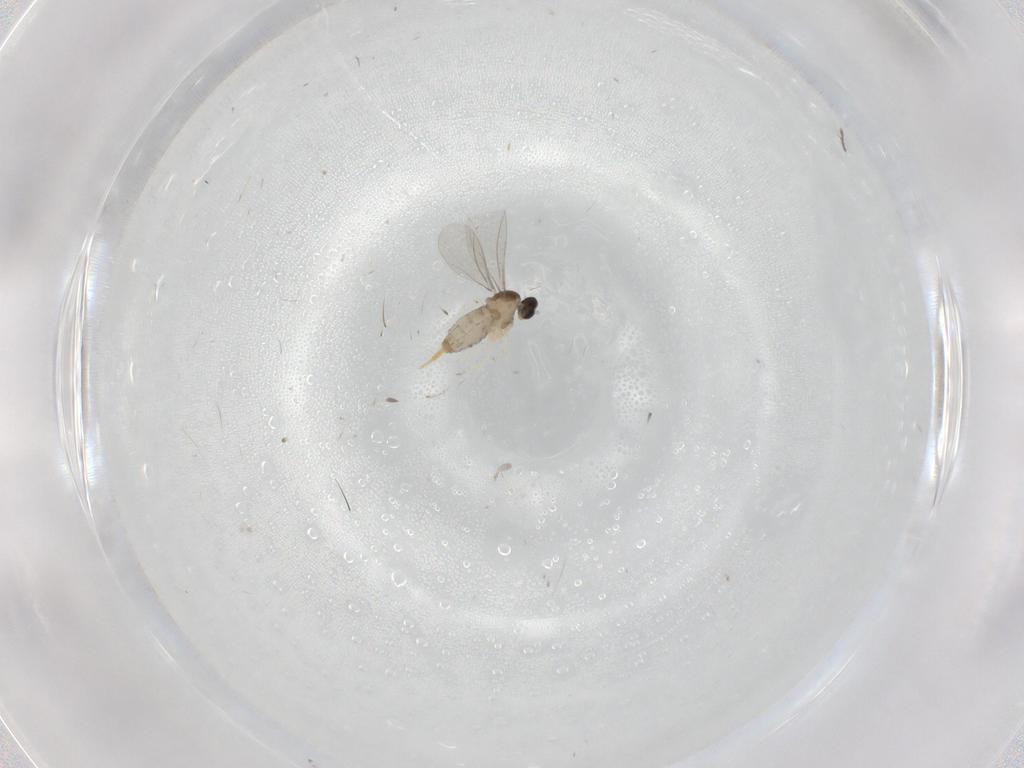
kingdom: Animalia
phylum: Arthropoda
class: Insecta
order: Diptera
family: Cecidomyiidae
